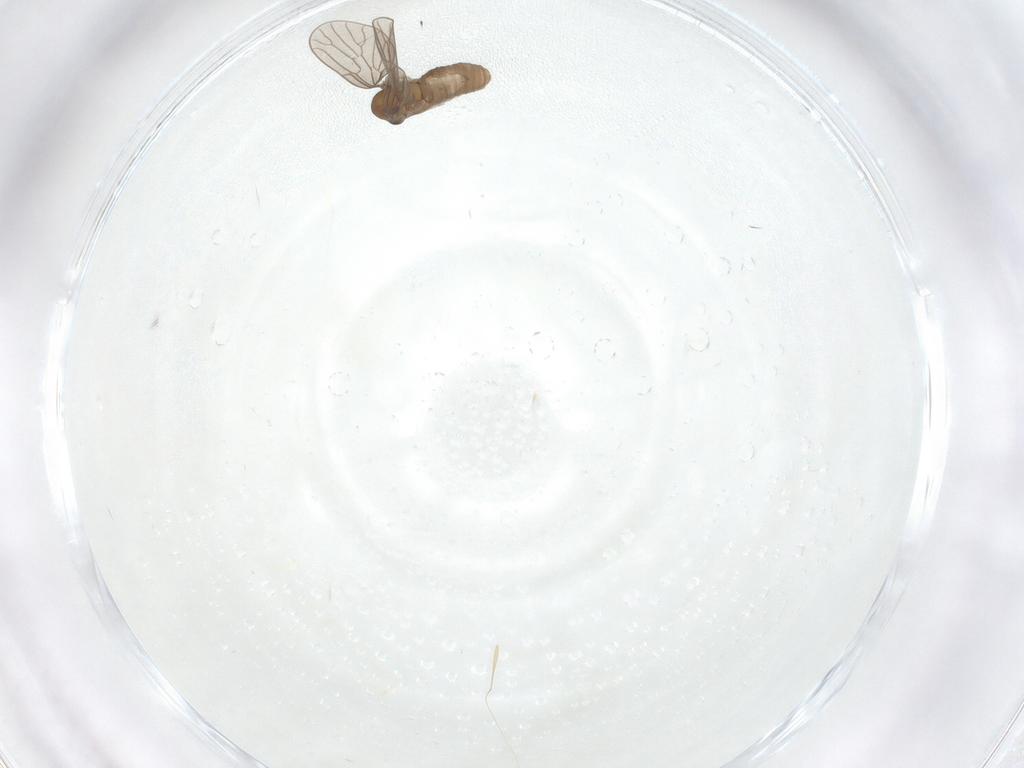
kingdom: Animalia
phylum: Arthropoda
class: Insecta
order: Diptera
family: Psychodidae
